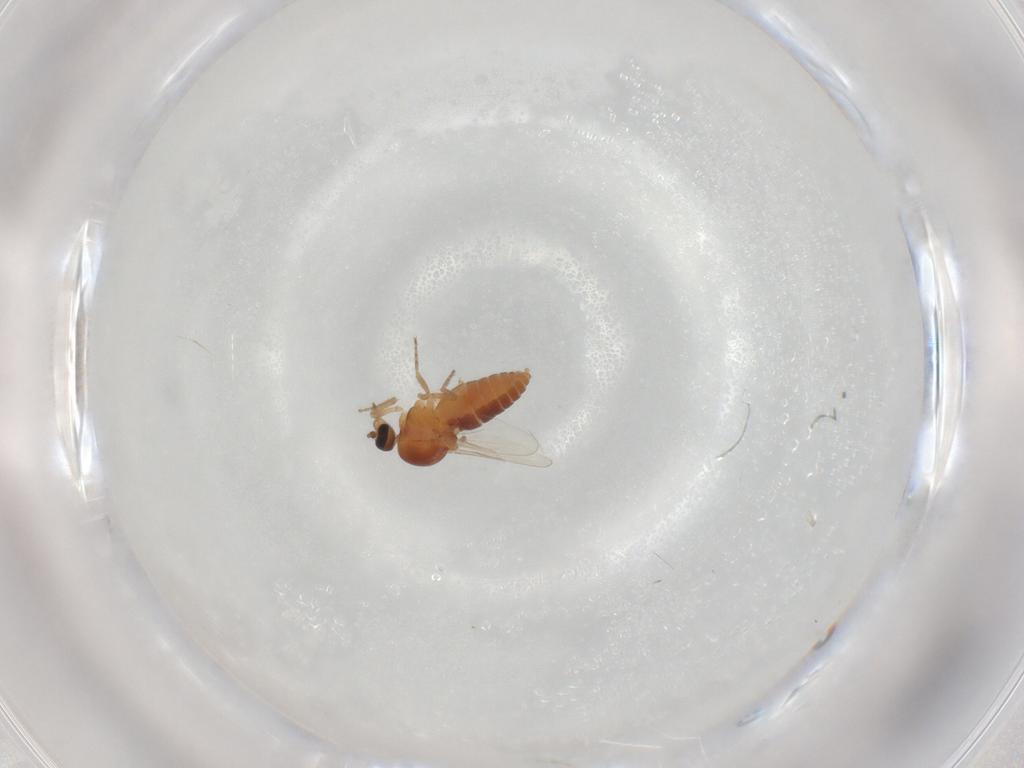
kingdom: Animalia
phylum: Arthropoda
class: Insecta
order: Diptera
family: Ceratopogonidae
